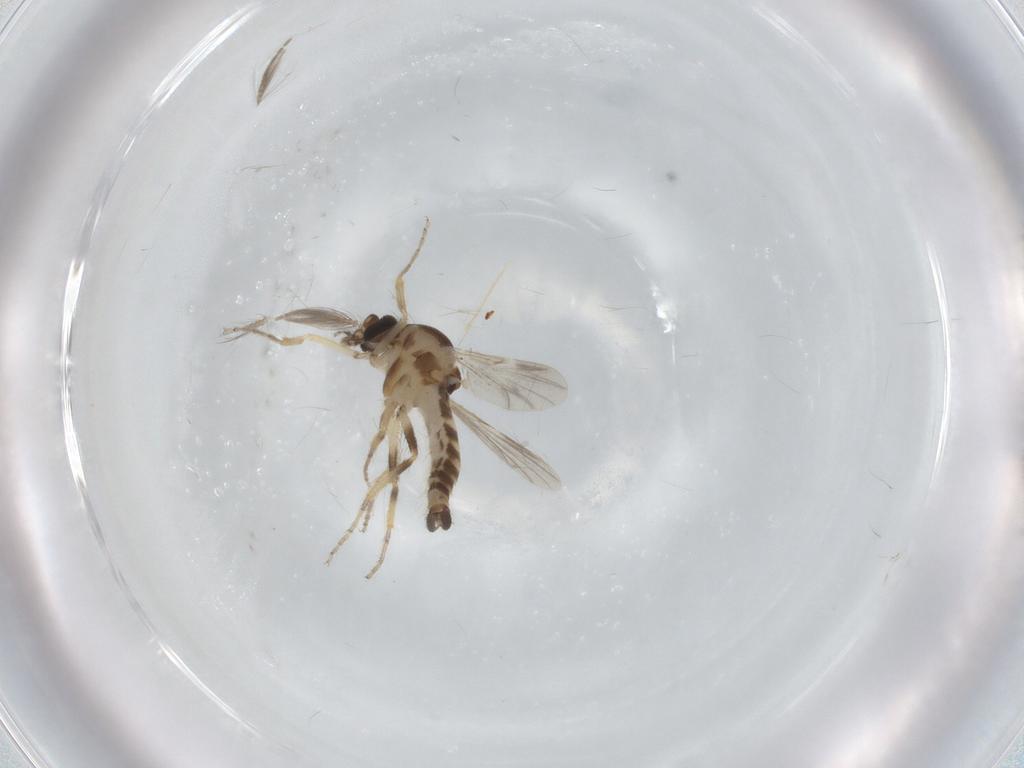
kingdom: Animalia
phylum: Arthropoda
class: Insecta
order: Diptera
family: Ceratopogonidae
